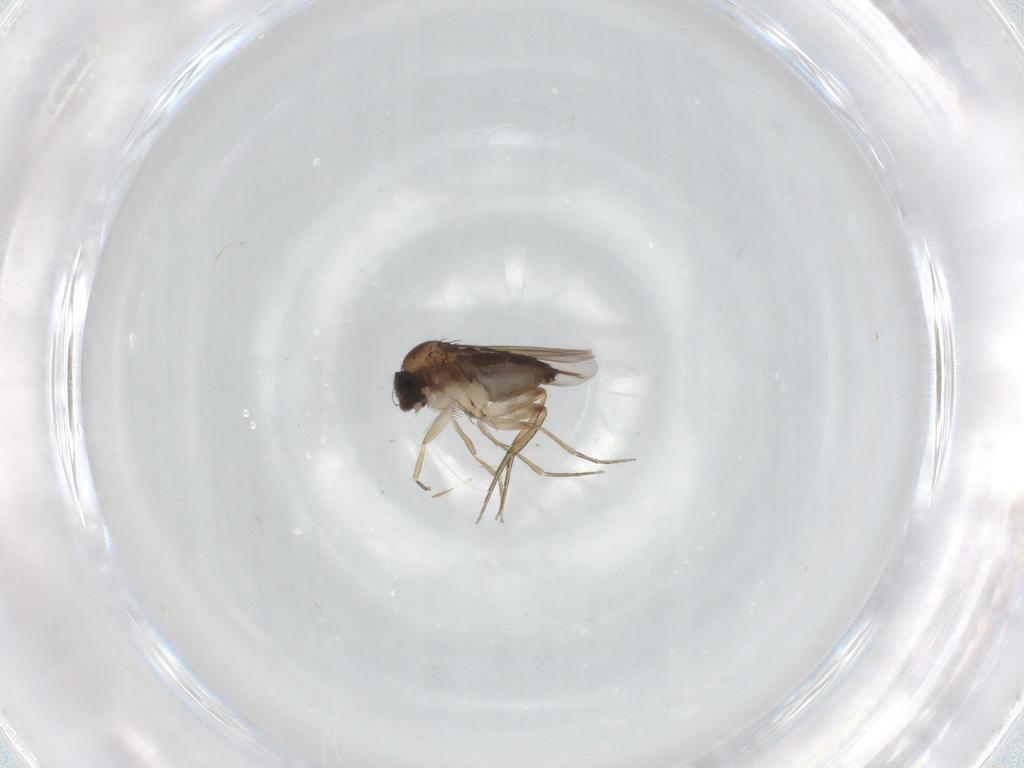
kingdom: Animalia
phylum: Arthropoda
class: Insecta
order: Diptera
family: Phoridae
